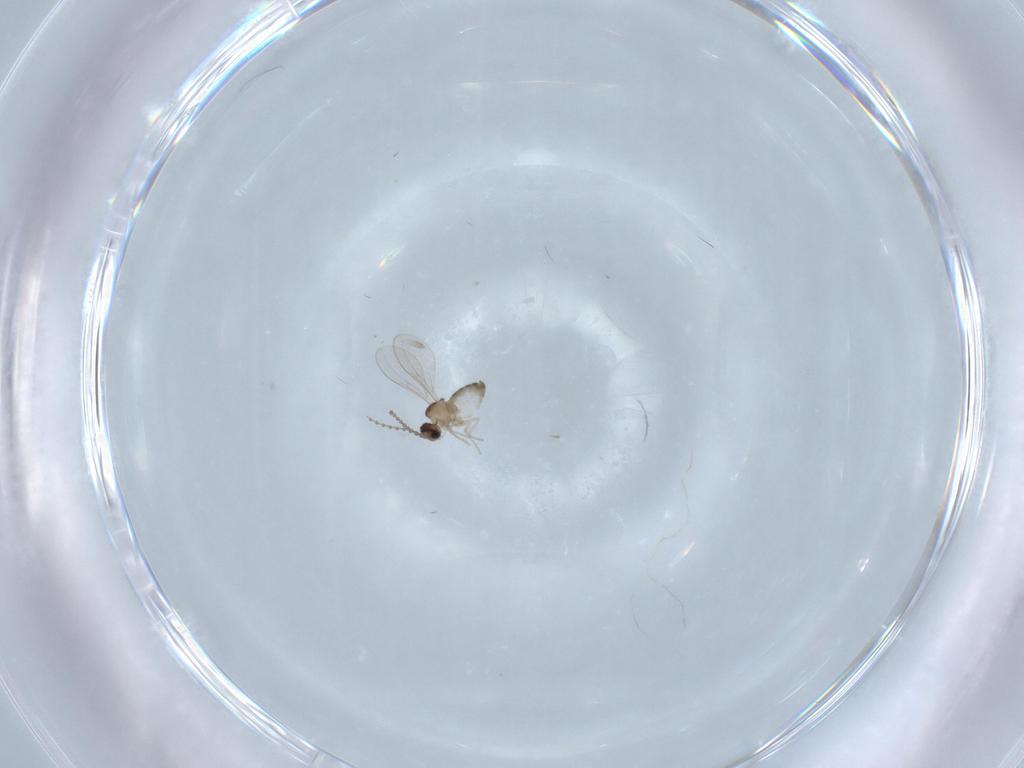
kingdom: Animalia
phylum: Arthropoda
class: Insecta
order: Diptera
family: Cecidomyiidae
